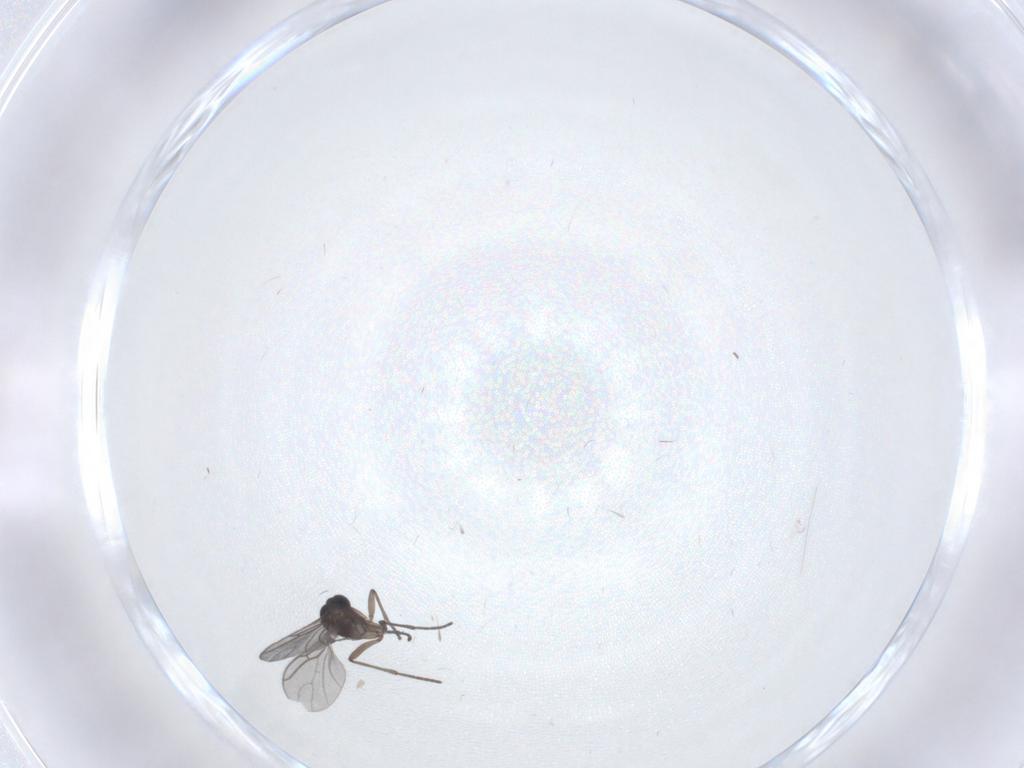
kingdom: Animalia
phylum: Arthropoda
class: Insecta
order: Diptera
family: Sciaridae
